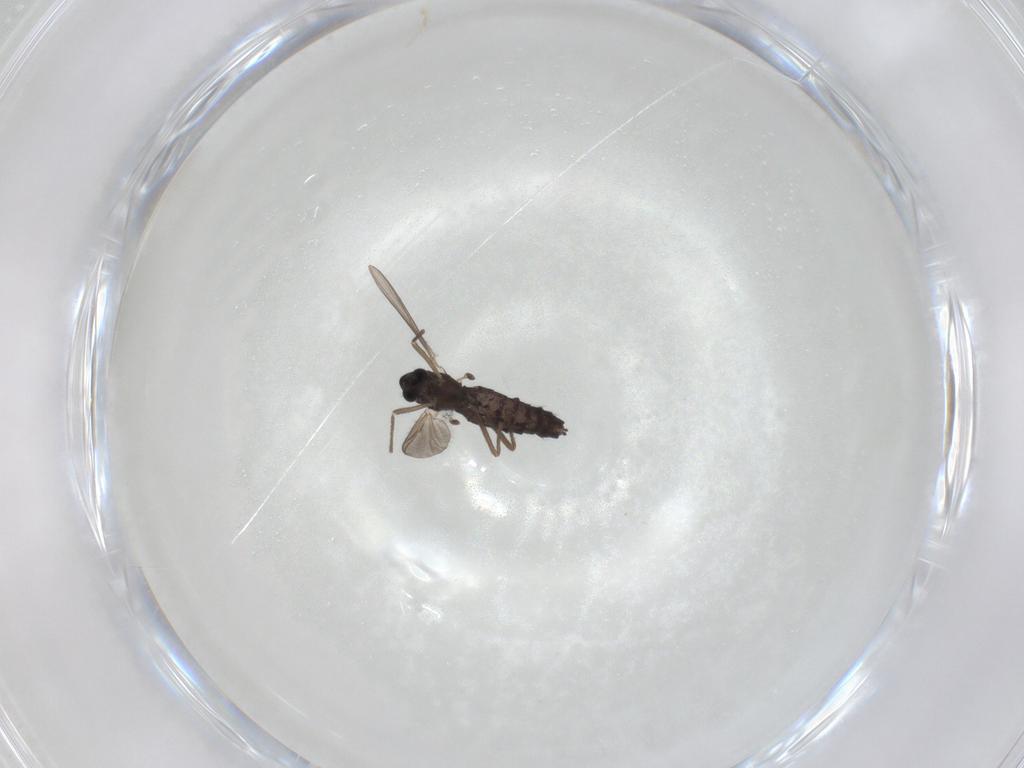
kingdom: Animalia
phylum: Arthropoda
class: Insecta
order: Diptera
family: Chironomidae
